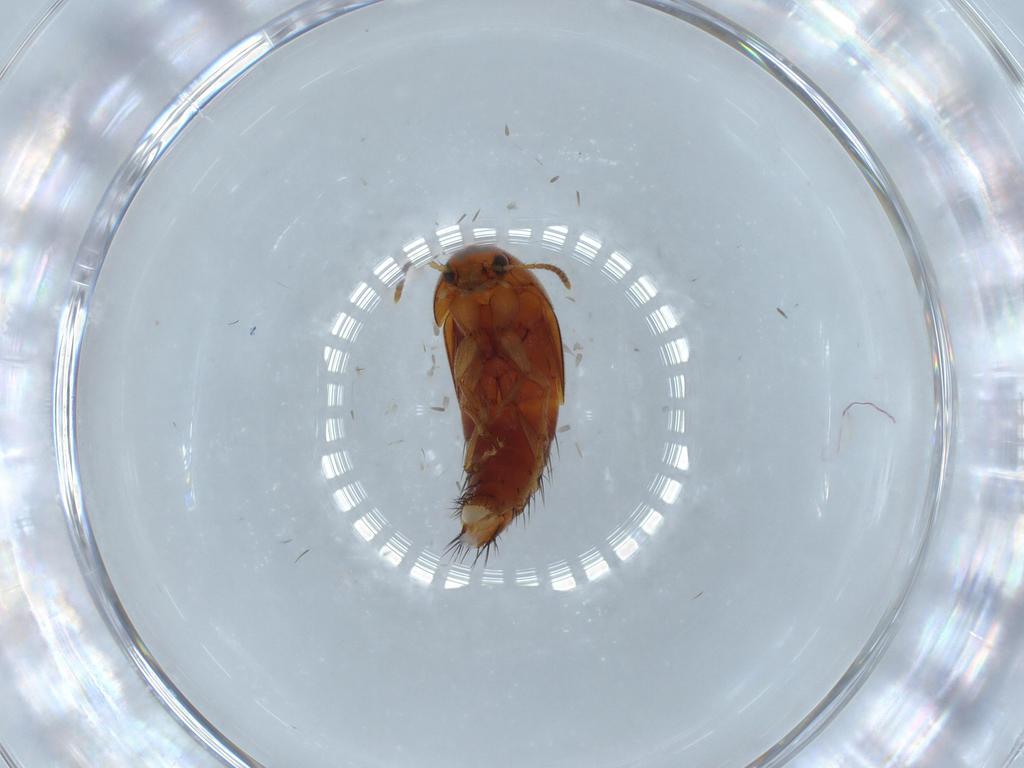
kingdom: Animalia
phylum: Arthropoda
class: Insecta
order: Coleoptera
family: Staphylinidae
